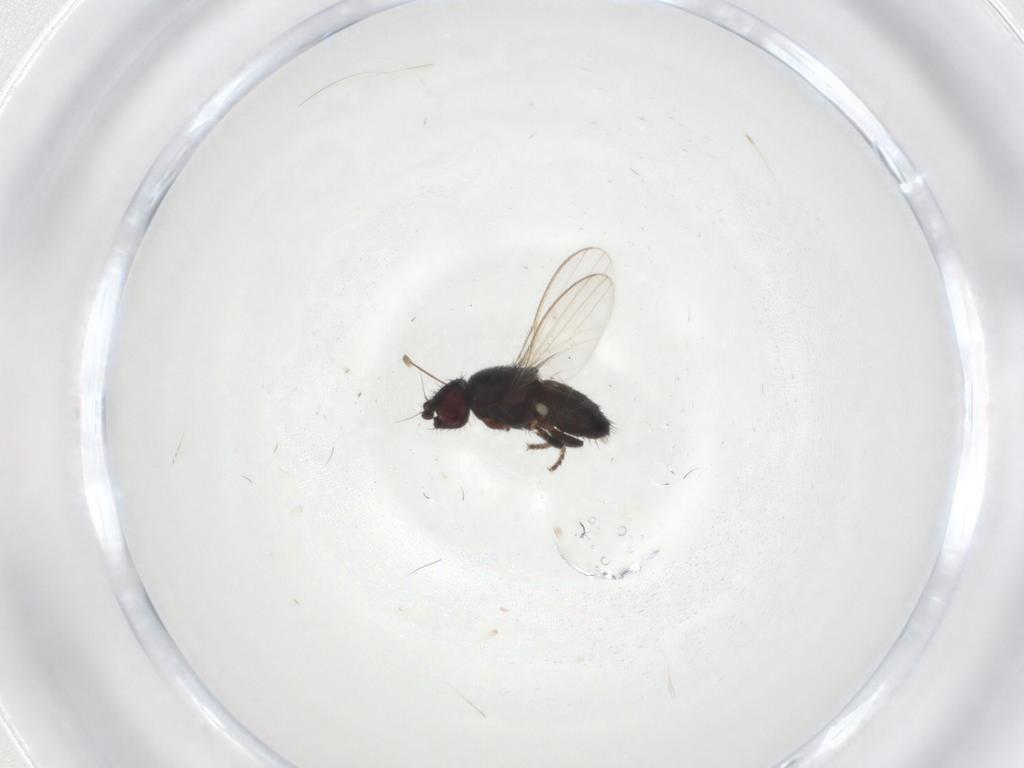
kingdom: Animalia
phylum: Arthropoda
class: Insecta
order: Diptera
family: Milichiidae
